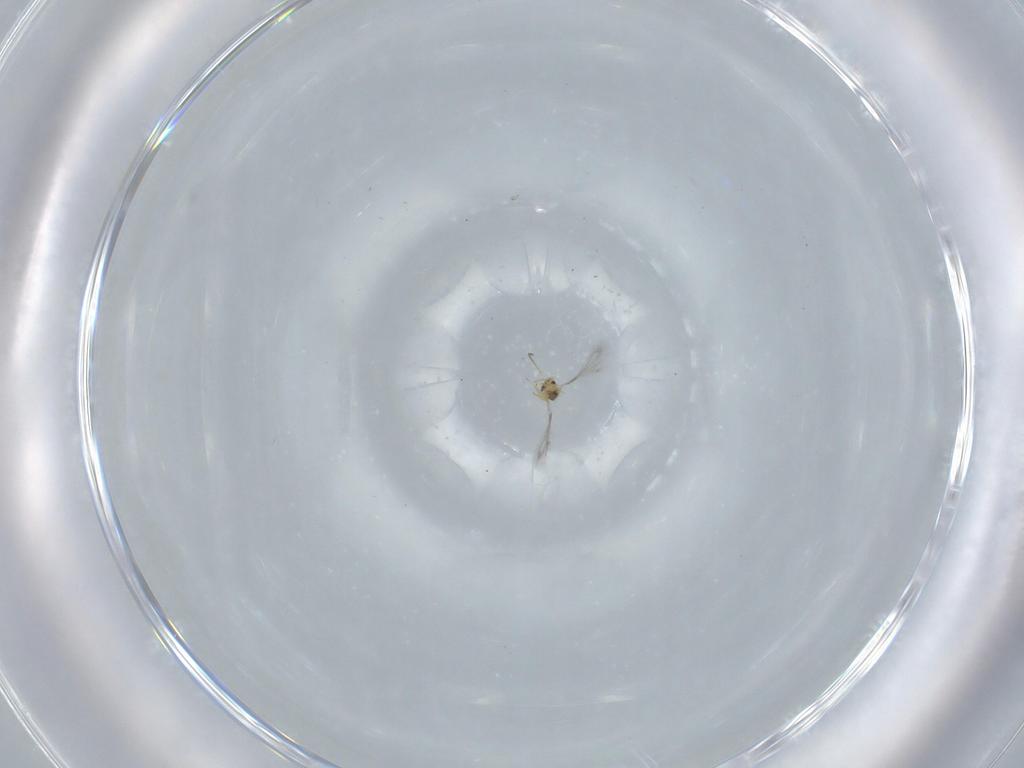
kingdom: Animalia
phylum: Arthropoda
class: Insecta
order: Hymenoptera
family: Mymaridae
